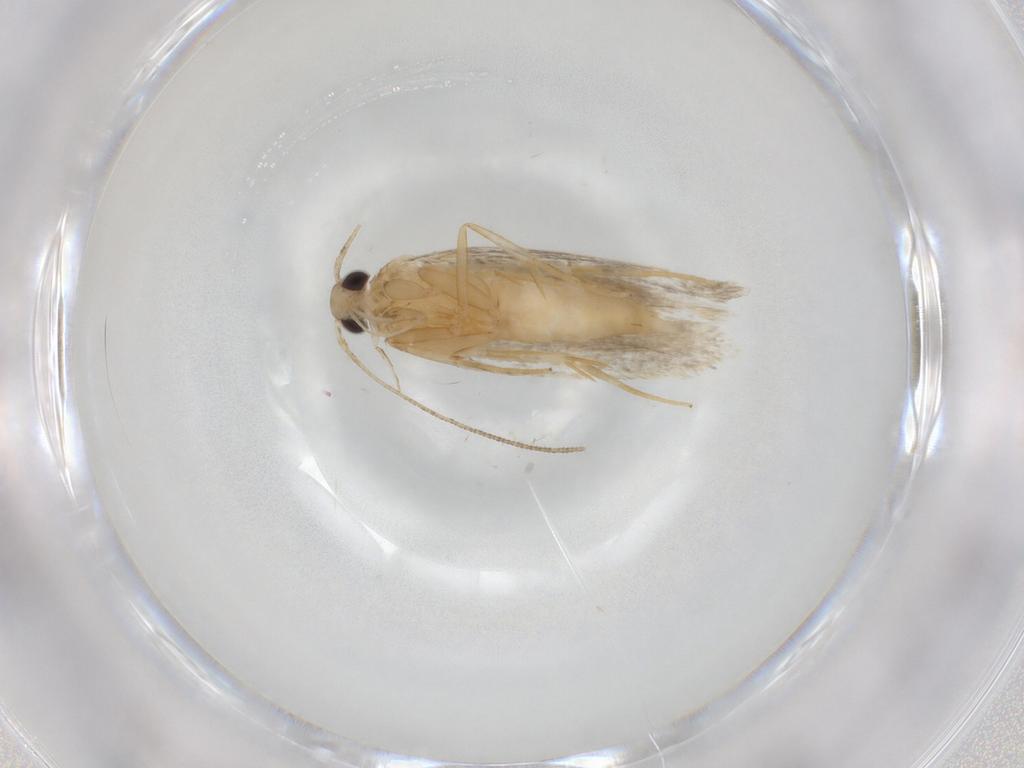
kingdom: Animalia
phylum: Arthropoda
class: Insecta
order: Lepidoptera
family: Autostichidae
